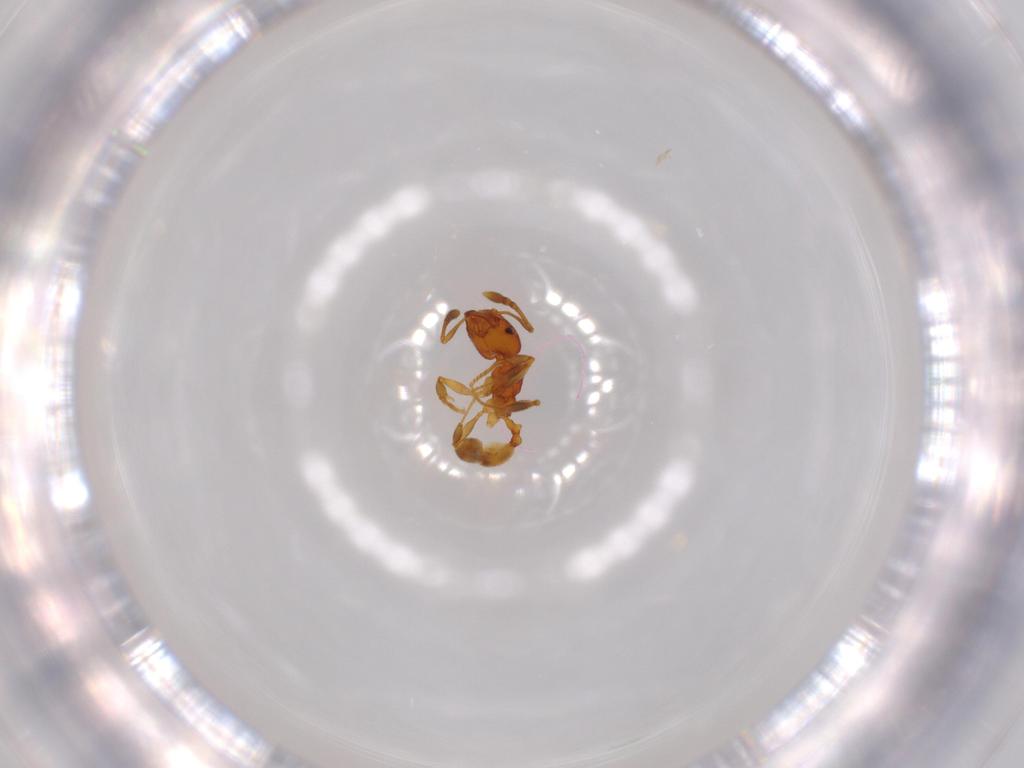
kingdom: Animalia
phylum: Arthropoda
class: Insecta
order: Hymenoptera
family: Formicidae
